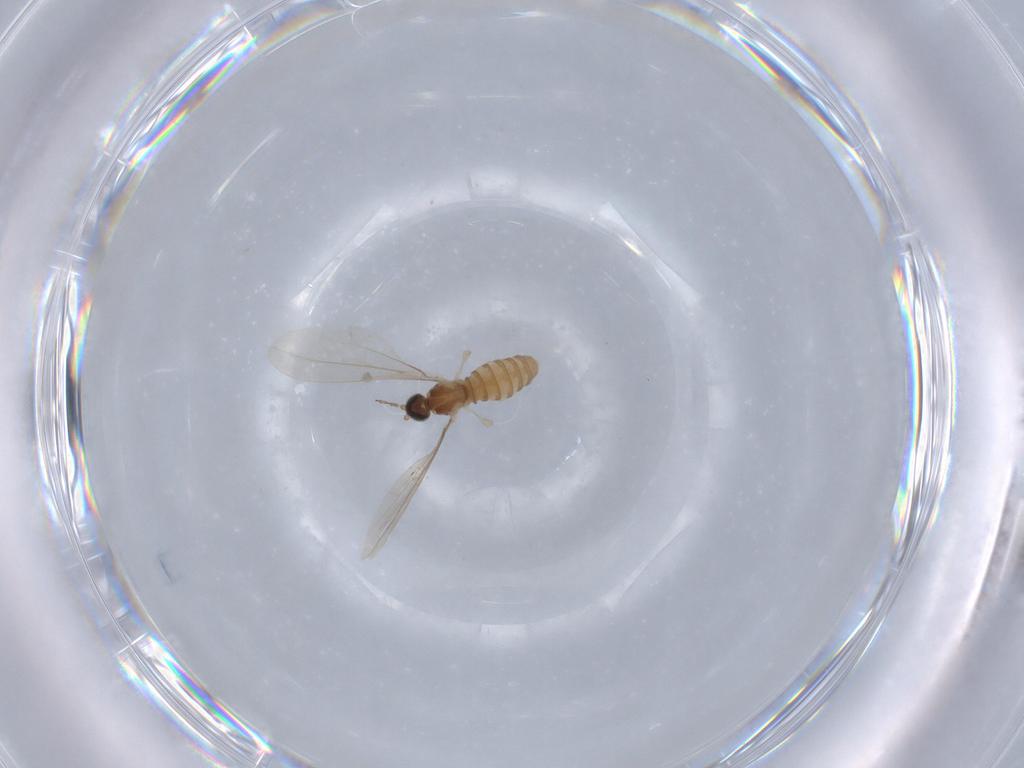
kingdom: Animalia
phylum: Arthropoda
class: Insecta
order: Diptera
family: Cecidomyiidae
